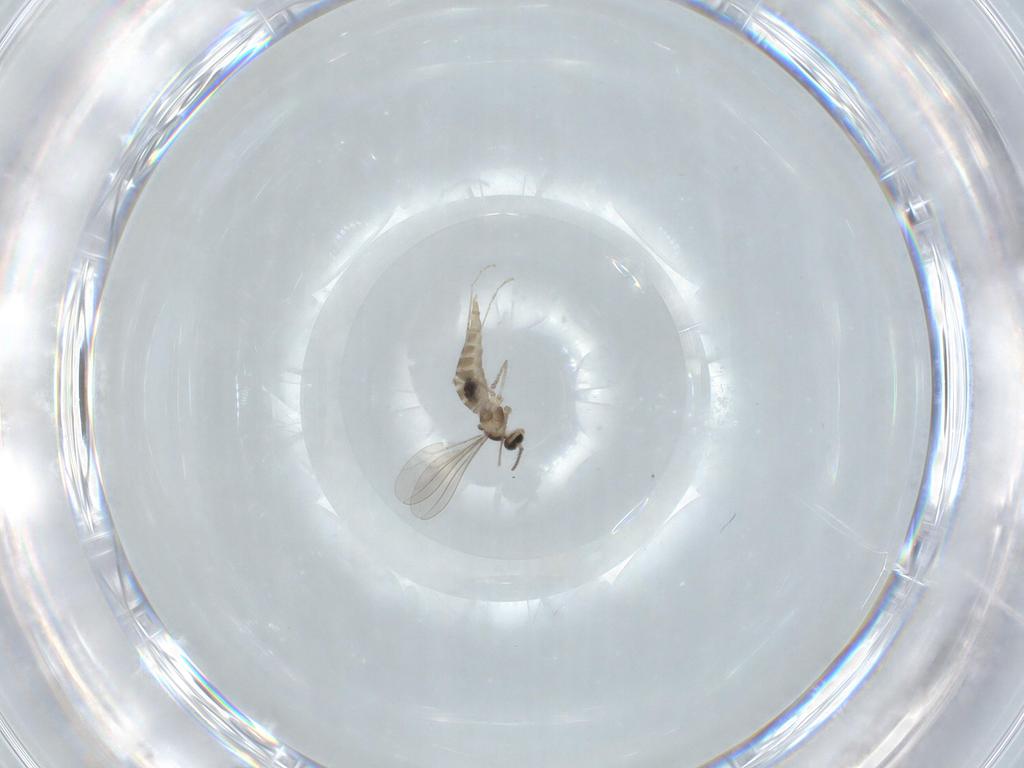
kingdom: Animalia
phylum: Arthropoda
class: Insecta
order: Diptera
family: Sciaridae
